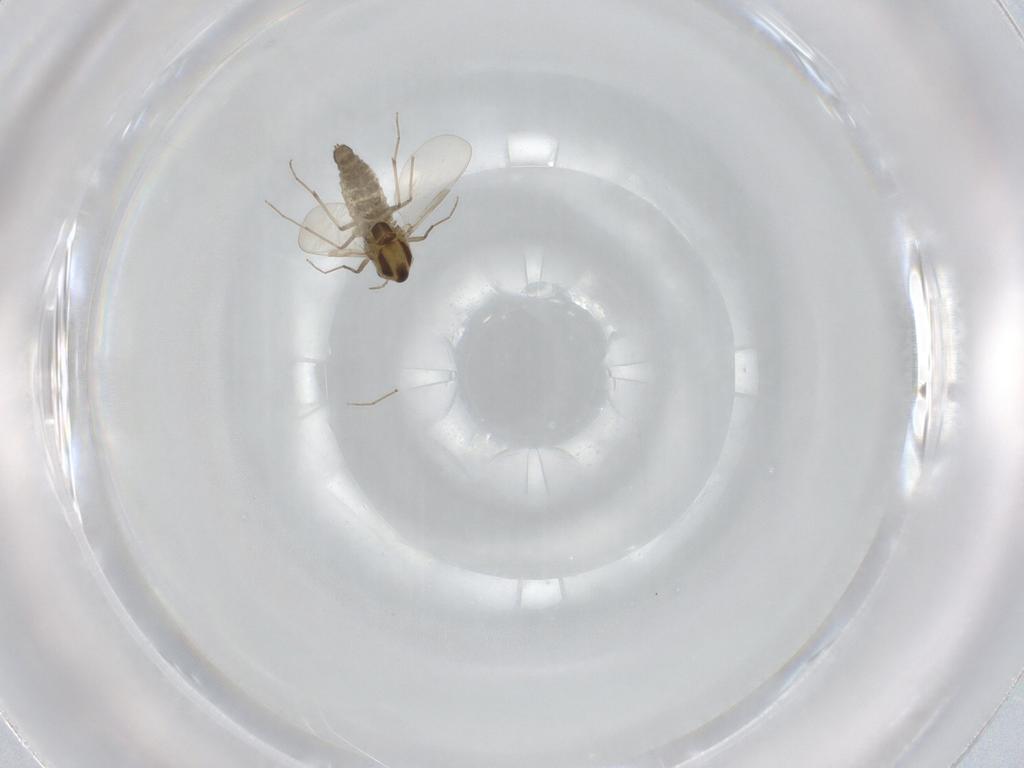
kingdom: Animalia
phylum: Arthropoda
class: Insecta
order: Diptera
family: Chironomidae
